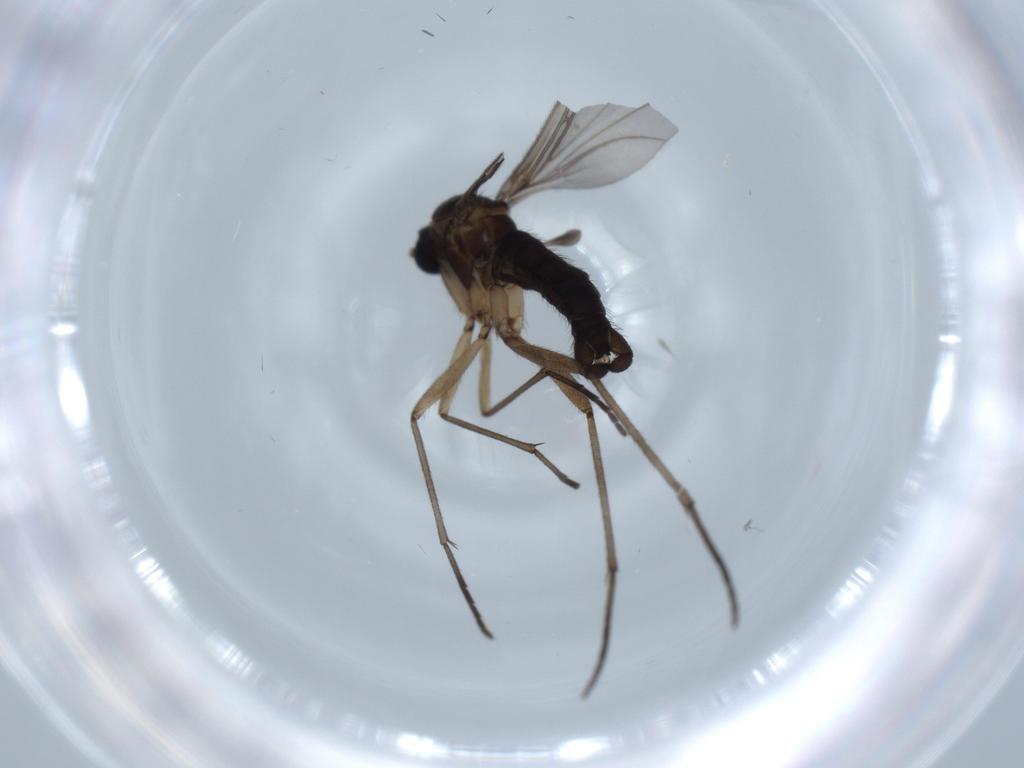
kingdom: Animalia
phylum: Arthropoda
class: Insecta
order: Diptera
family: Sciaridae
